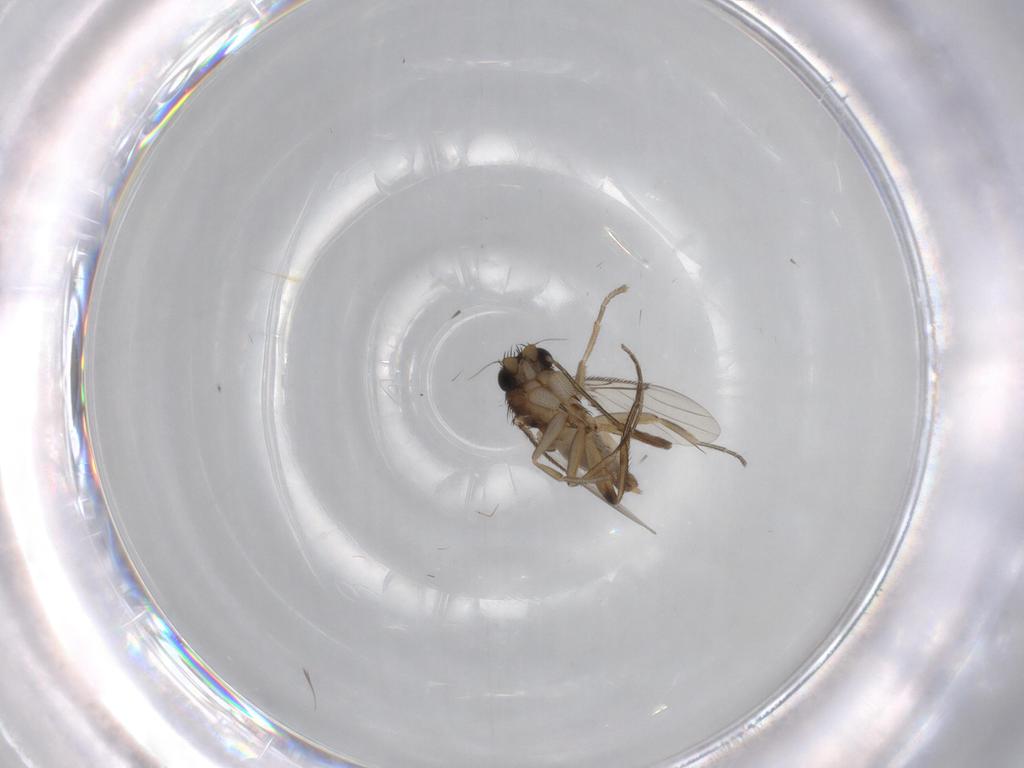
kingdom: Animalia
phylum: Arthropoda
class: Insecta
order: Diptera
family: Phoridae
